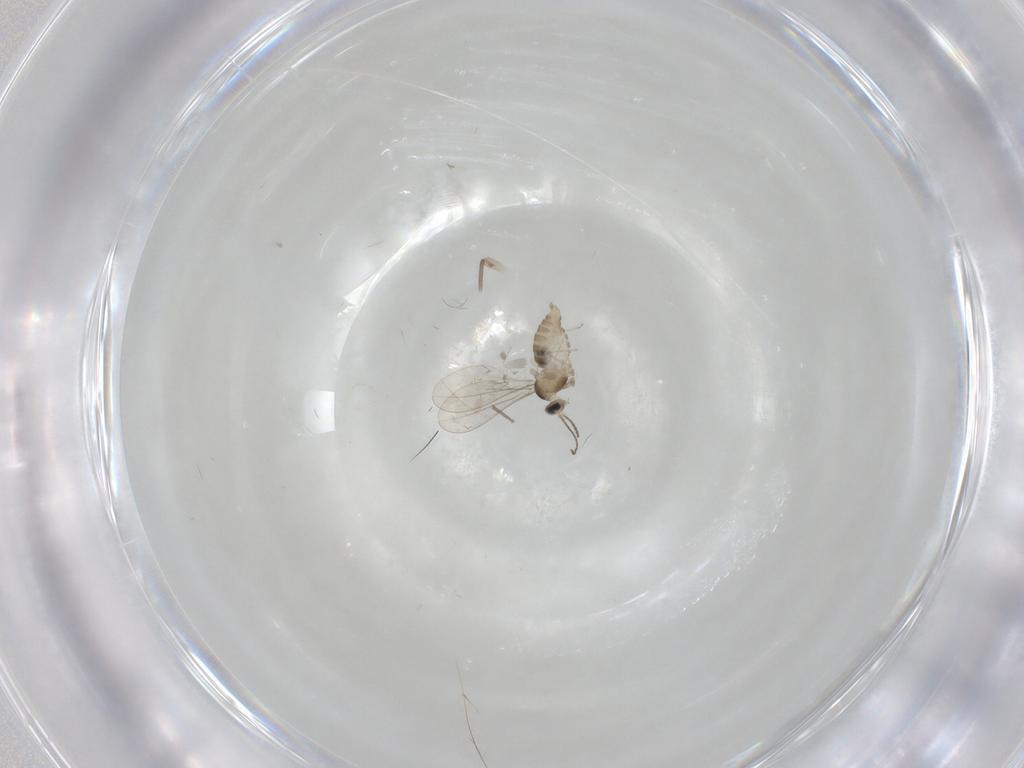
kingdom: Animalia
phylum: Arthropoda
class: Insecta
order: Diptera
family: Cecidomyiidae
